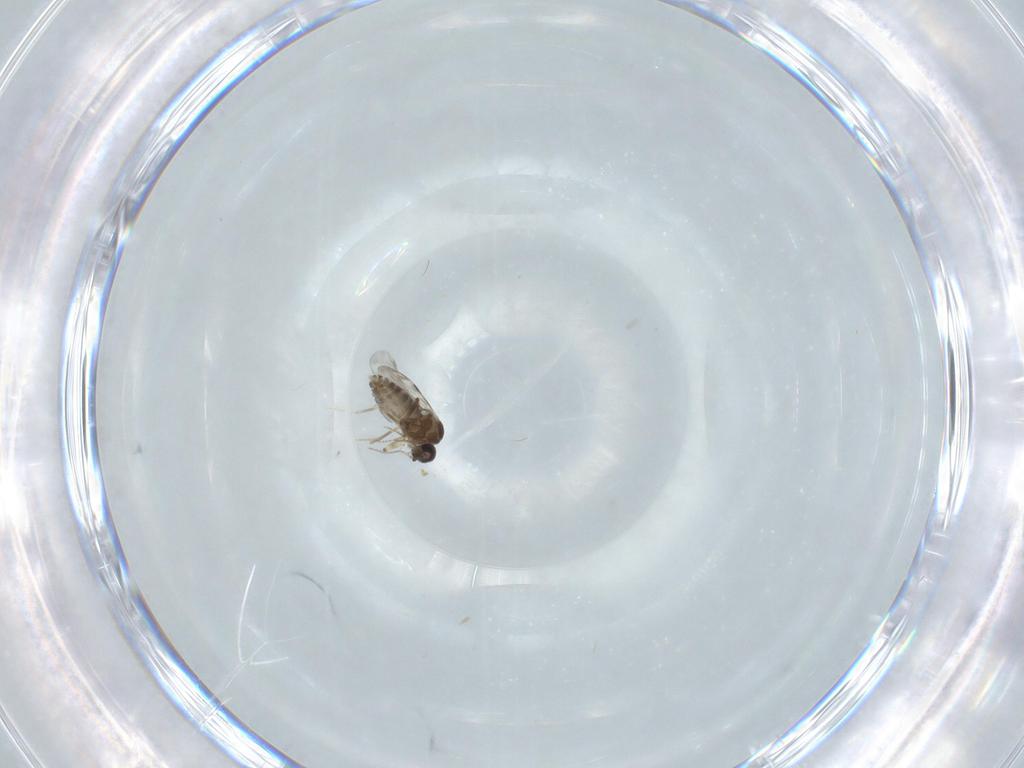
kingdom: Animalia
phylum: Arthropoda
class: Insecta
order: Diptera
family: Ceratopogonidae
